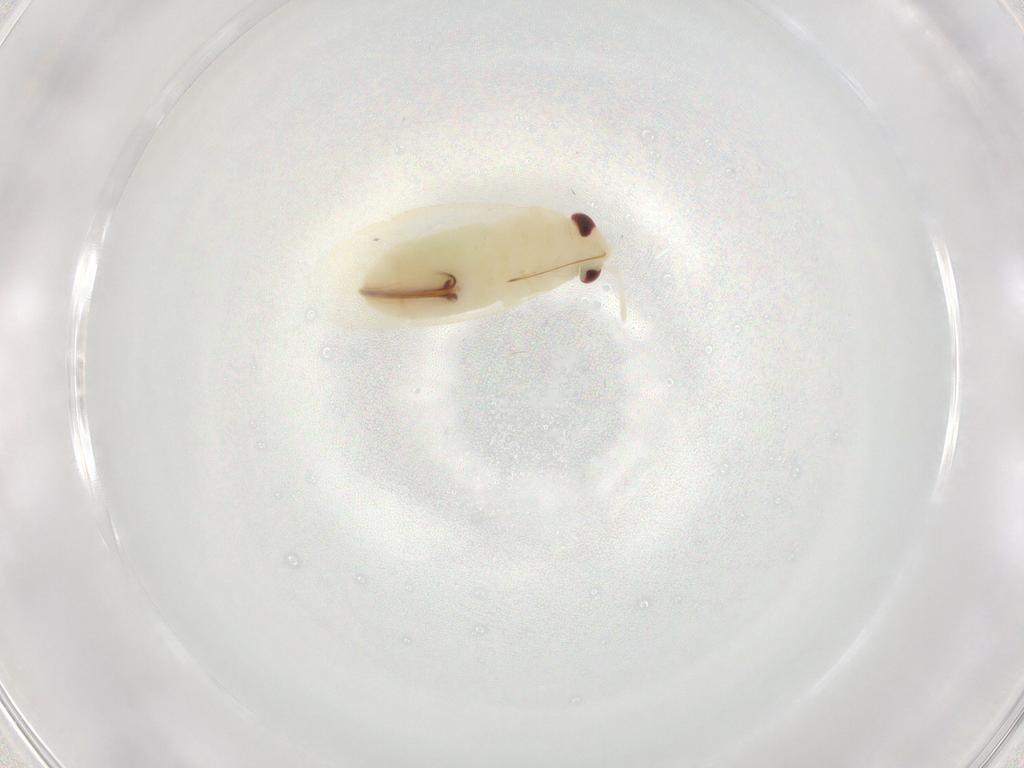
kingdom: Animalia
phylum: Arthropoda
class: Insecta
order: Hemiptera
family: Miridae
